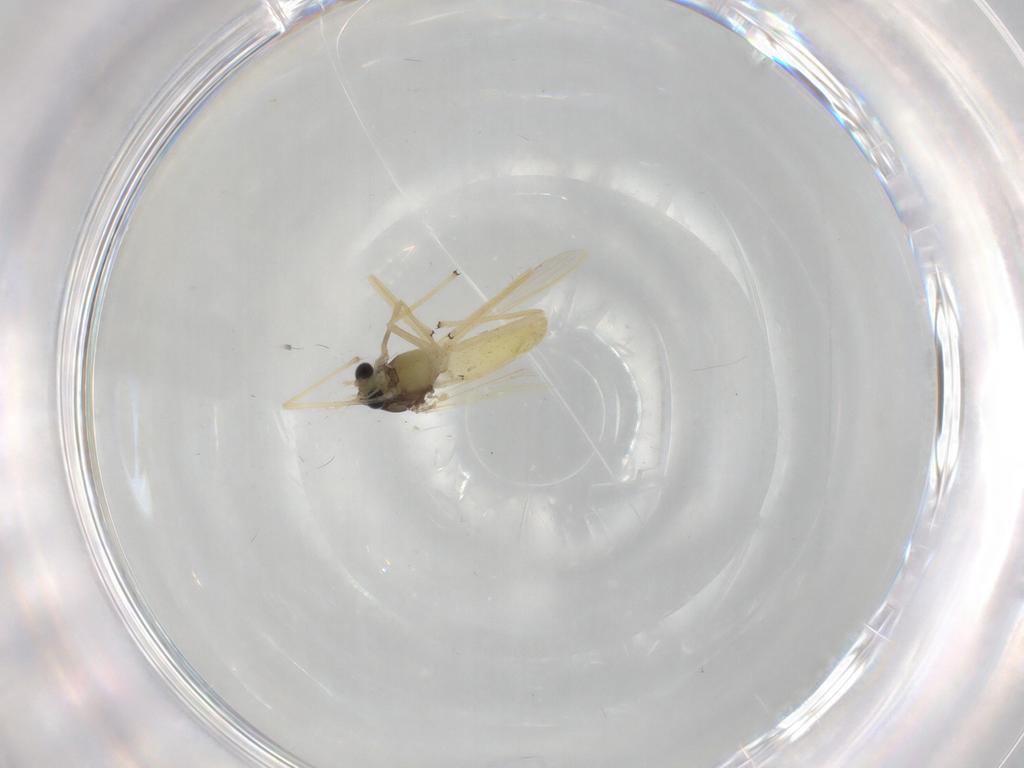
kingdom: Animalia
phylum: Arthropoda
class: Insecta
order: Diptera
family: Chironomidae
